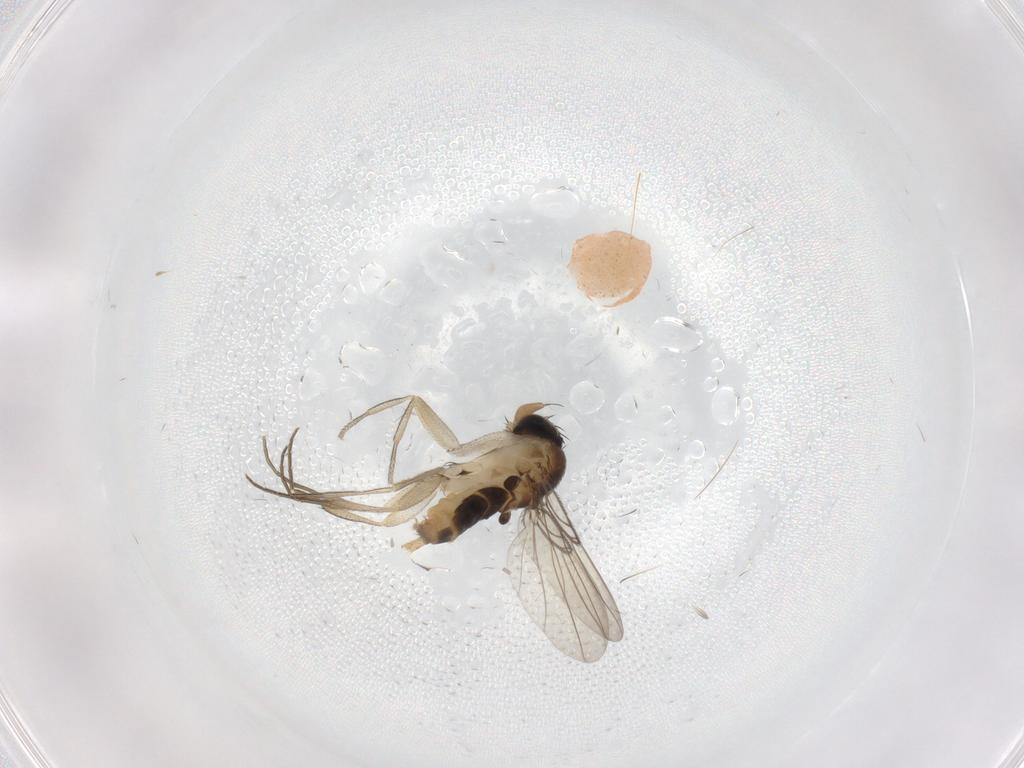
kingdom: Animalia
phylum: Arthropoda
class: Insecta
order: Diptera
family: Phoridae
